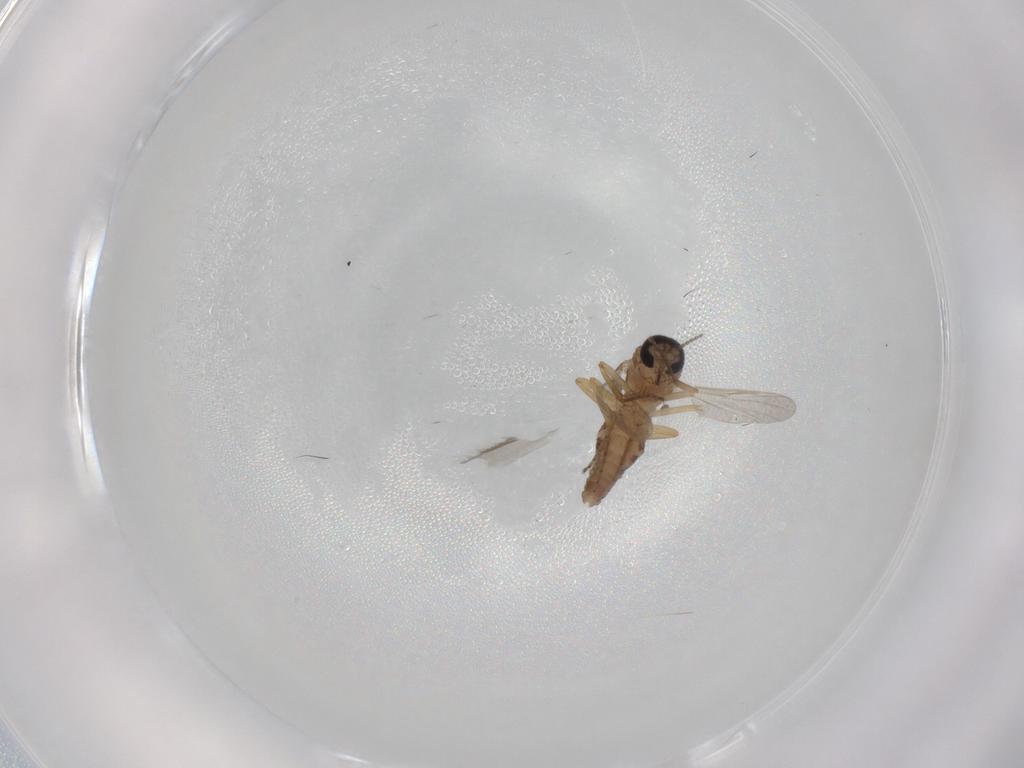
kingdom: Animalia
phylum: Arthropoda
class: Insecta
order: Diptera
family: Ceratopogonidae
